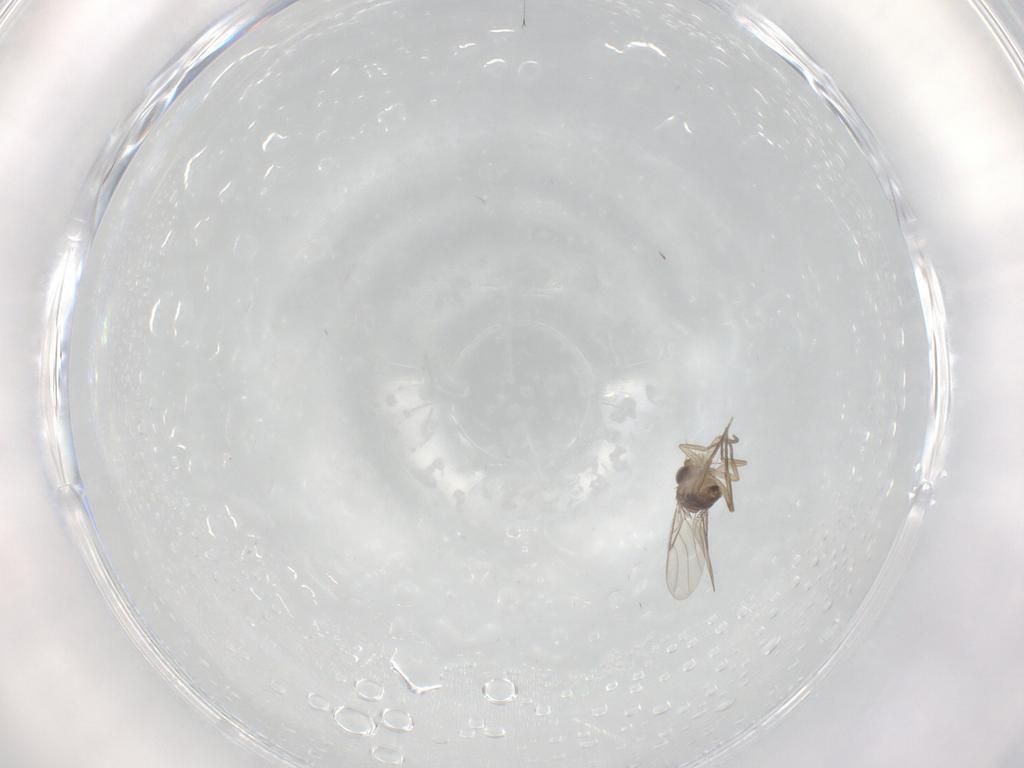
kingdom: Animalia
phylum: Arthropoda
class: Insecta
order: Diptera
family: Phoridae
